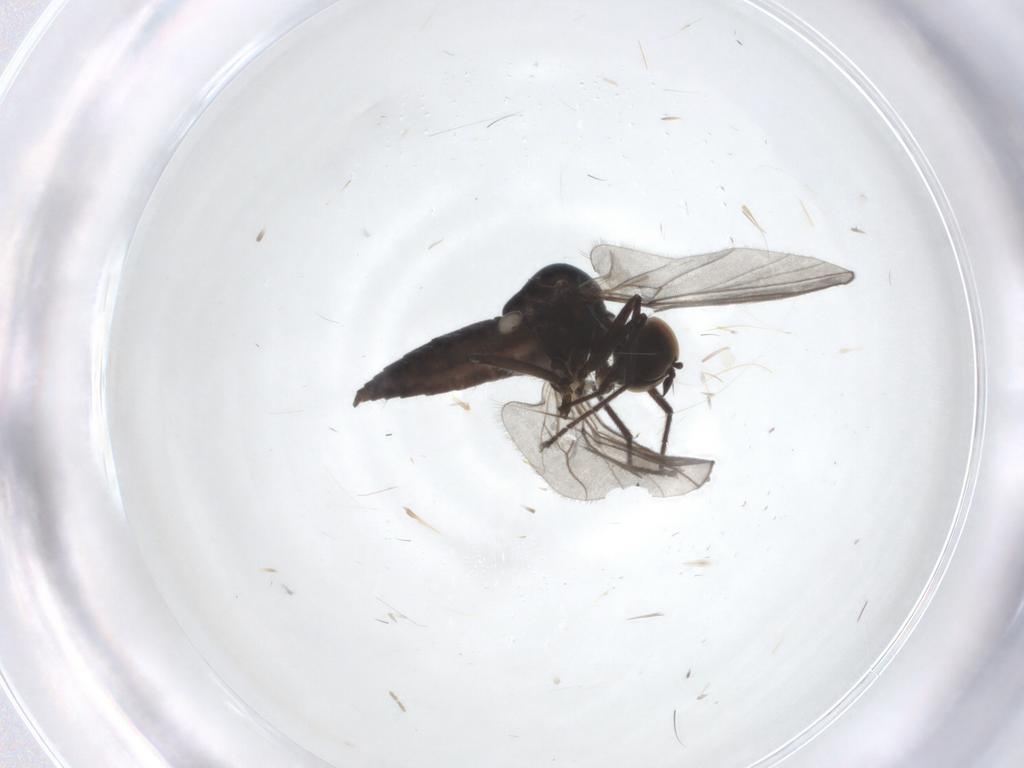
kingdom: Animalia
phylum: Arthropoda
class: Insecta
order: Diptera
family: Hybotidae
